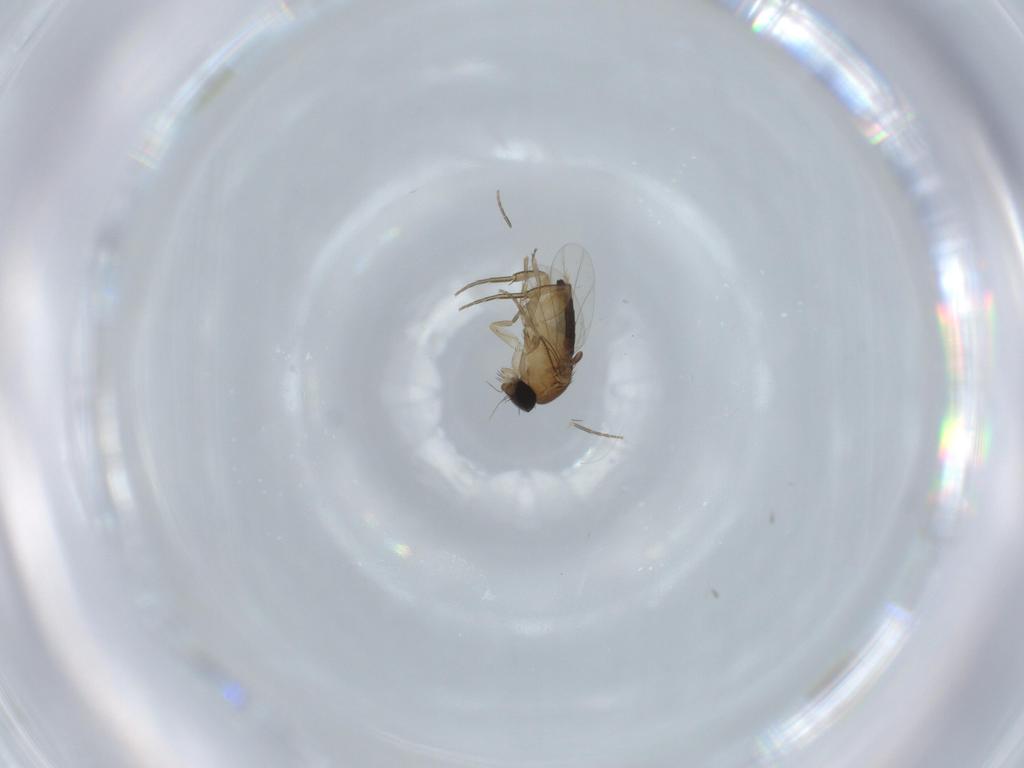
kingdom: Animalia
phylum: Arthropoda
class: Insecta
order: Diptera
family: Phoridae
